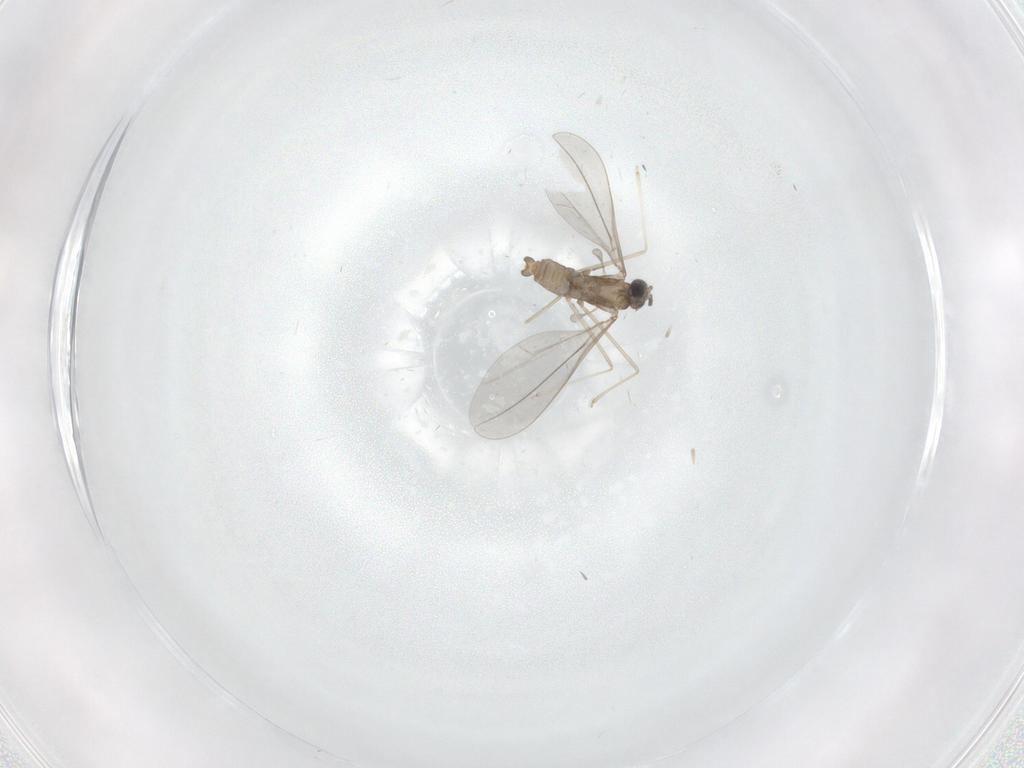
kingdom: Animalia
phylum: Arthropoda
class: Insecta
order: Diptera
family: Cecidomyiidae
